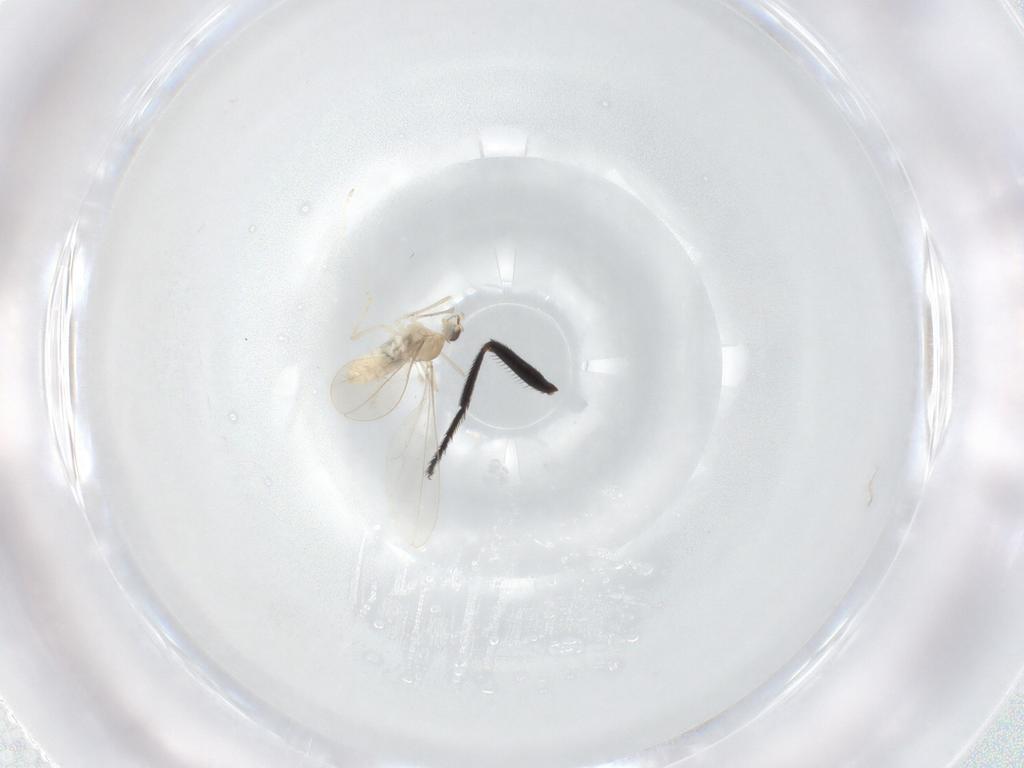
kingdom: Animalia
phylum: Arthropoda
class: Insecta
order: Diptera
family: Cecidomyiidae
